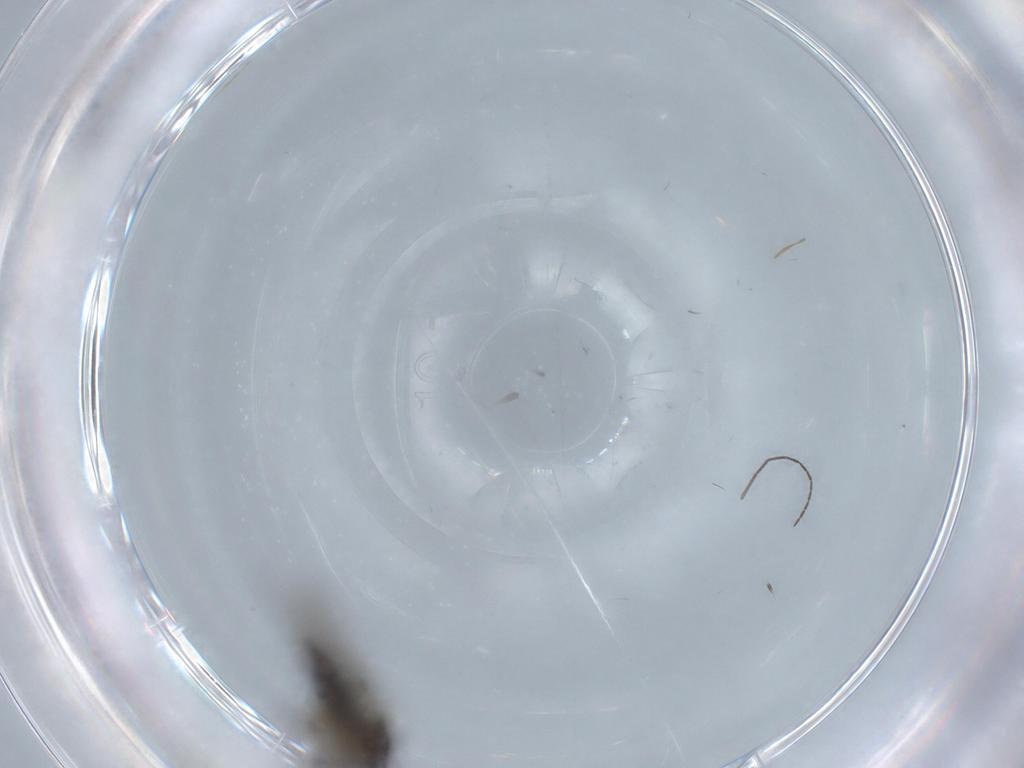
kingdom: Animalia
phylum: Arthropoda
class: Insecta
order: Diptera
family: Sciaridae
